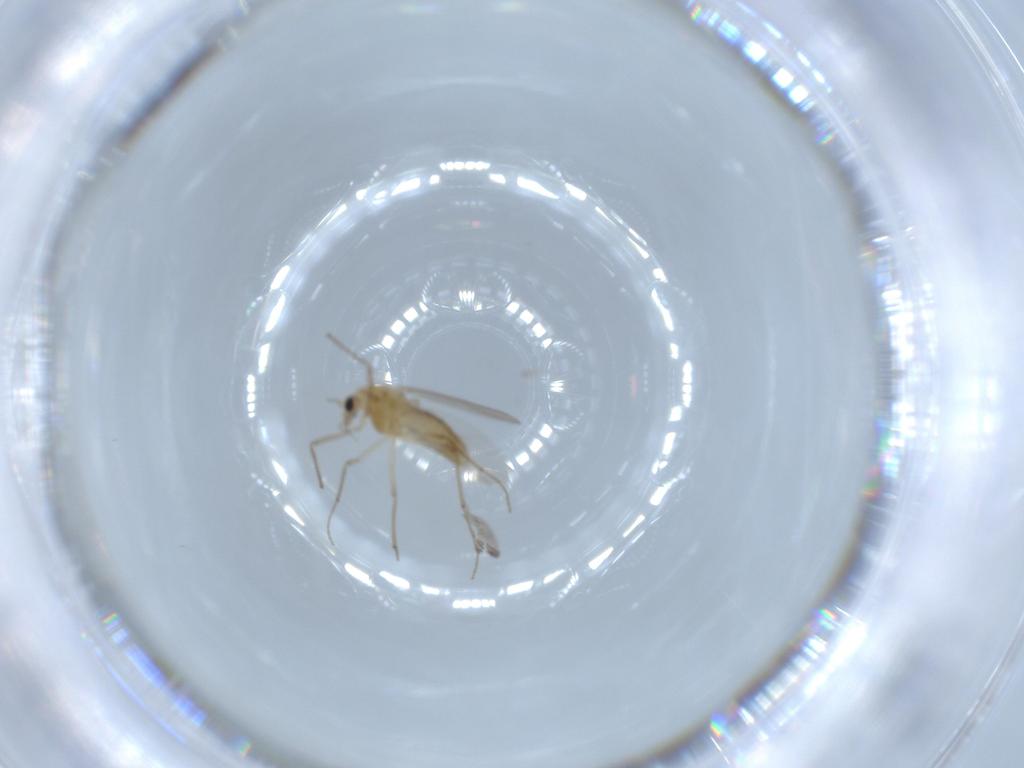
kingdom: Animalia
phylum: Arthropoda
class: Insecta
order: Diptera
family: Chironomidae
